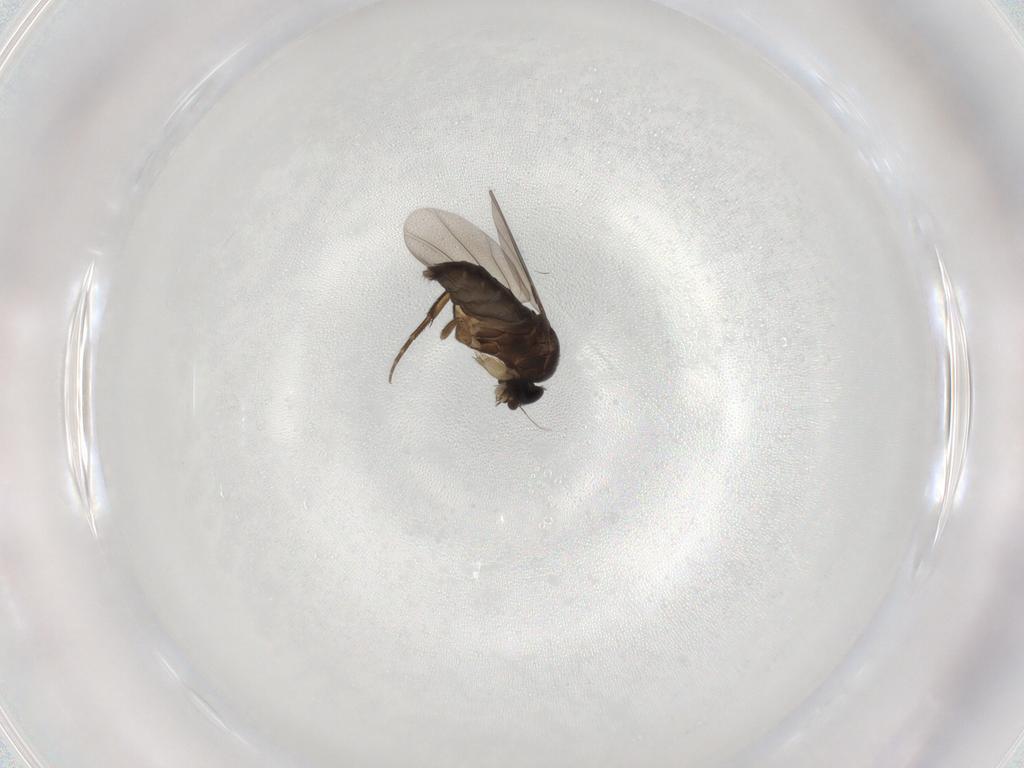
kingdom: Animalia
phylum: Arthropoda
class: Insecta
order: Diptera
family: Phoridae
